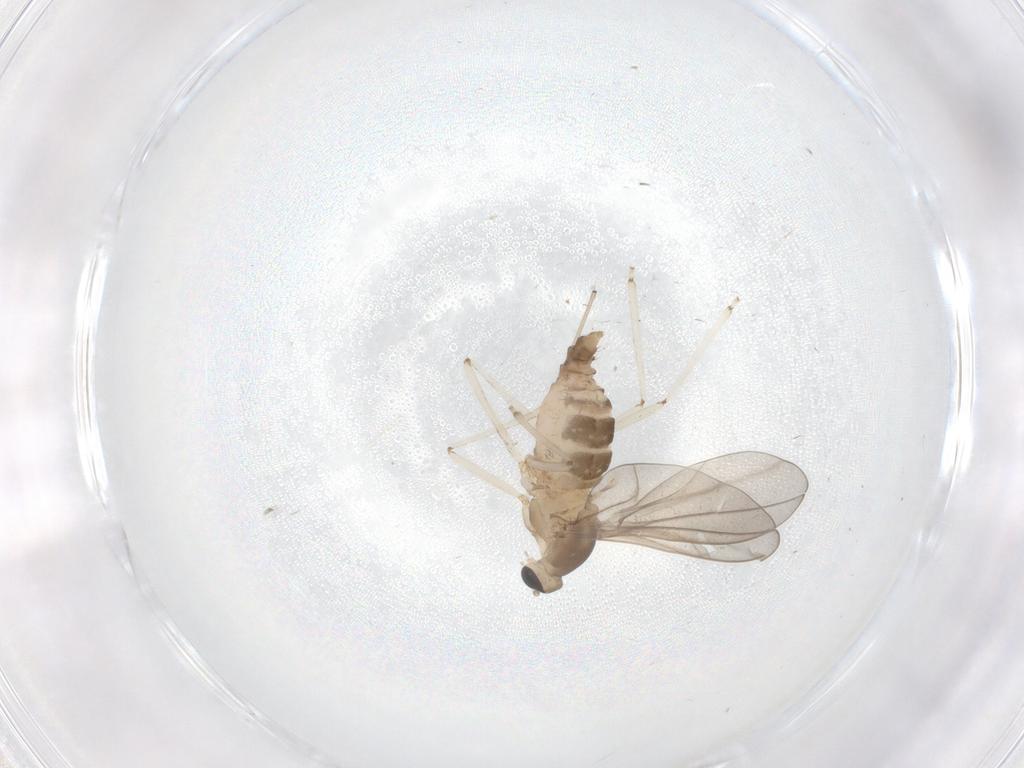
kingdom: Animalia
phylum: Arthropoda
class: Insecta
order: Diptera
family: Cecidomyiidae
